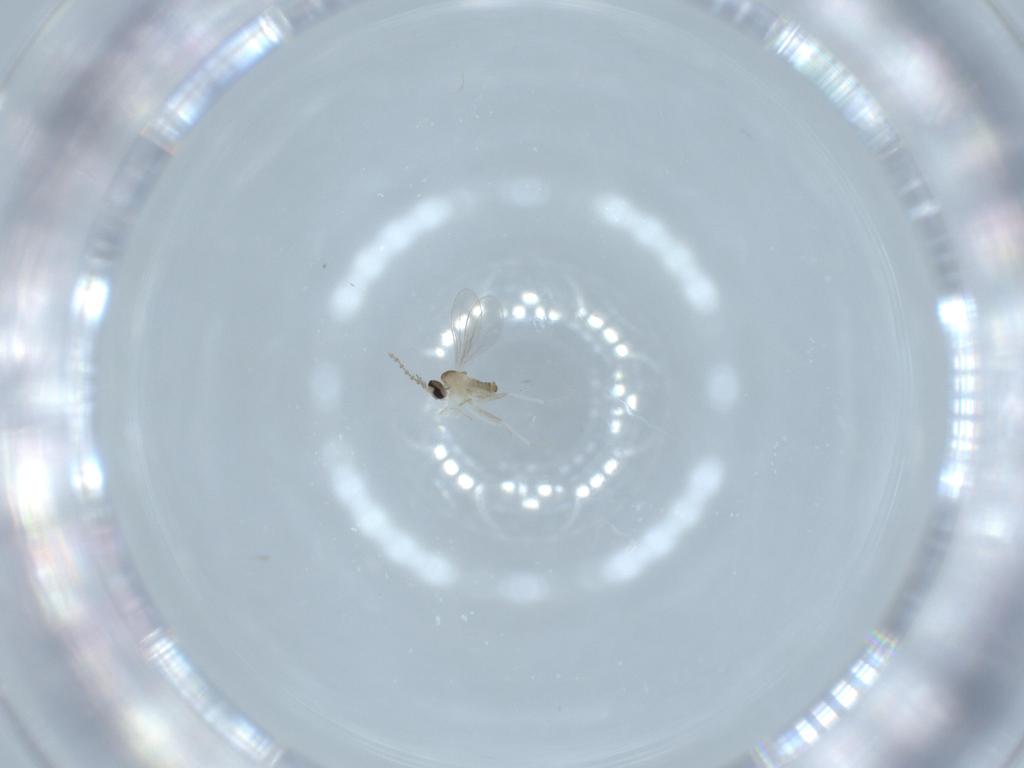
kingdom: Animalia
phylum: Arthropoda
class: Insecta
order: Diptera
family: Cecidomyiidae
